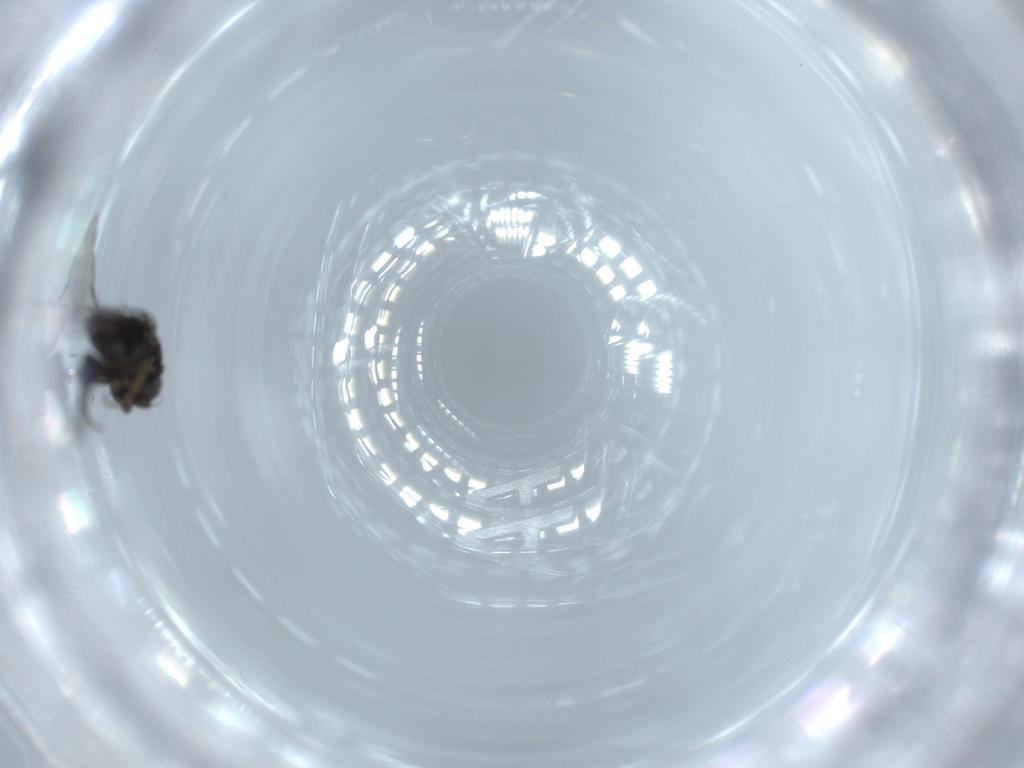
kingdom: Animalia
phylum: Arthropoda
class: Insecta
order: Diptera
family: Phoridae
